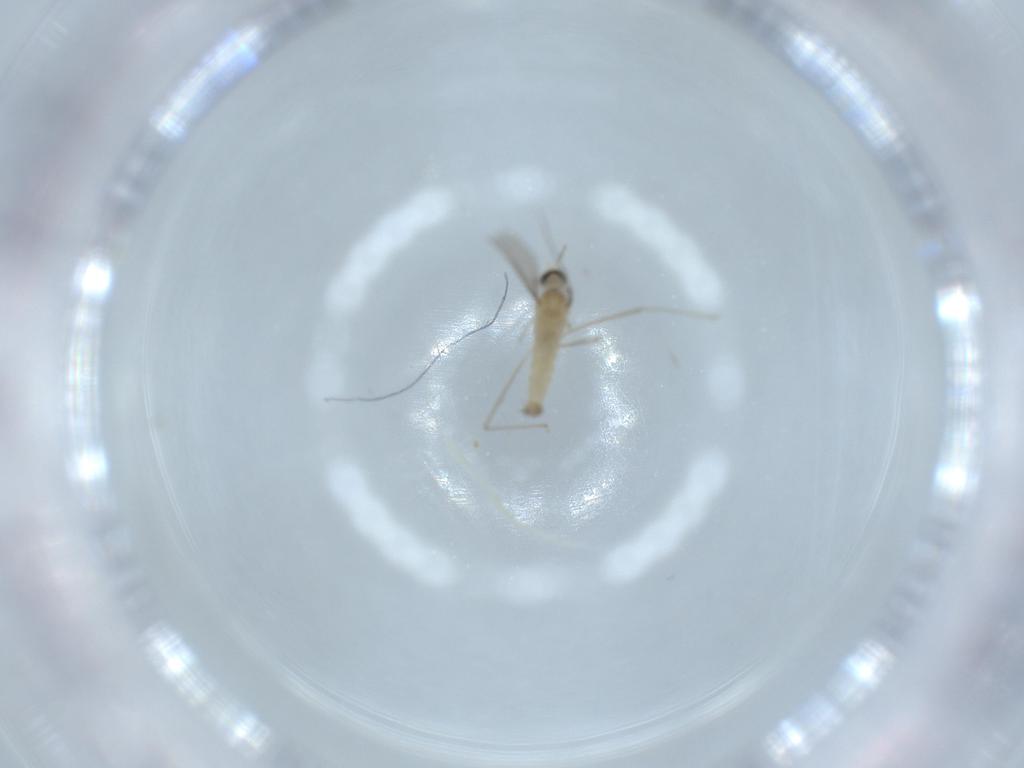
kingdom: Animalia
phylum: Arthropoda
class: Insecta
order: Diptera
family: Cecidomyiidae
